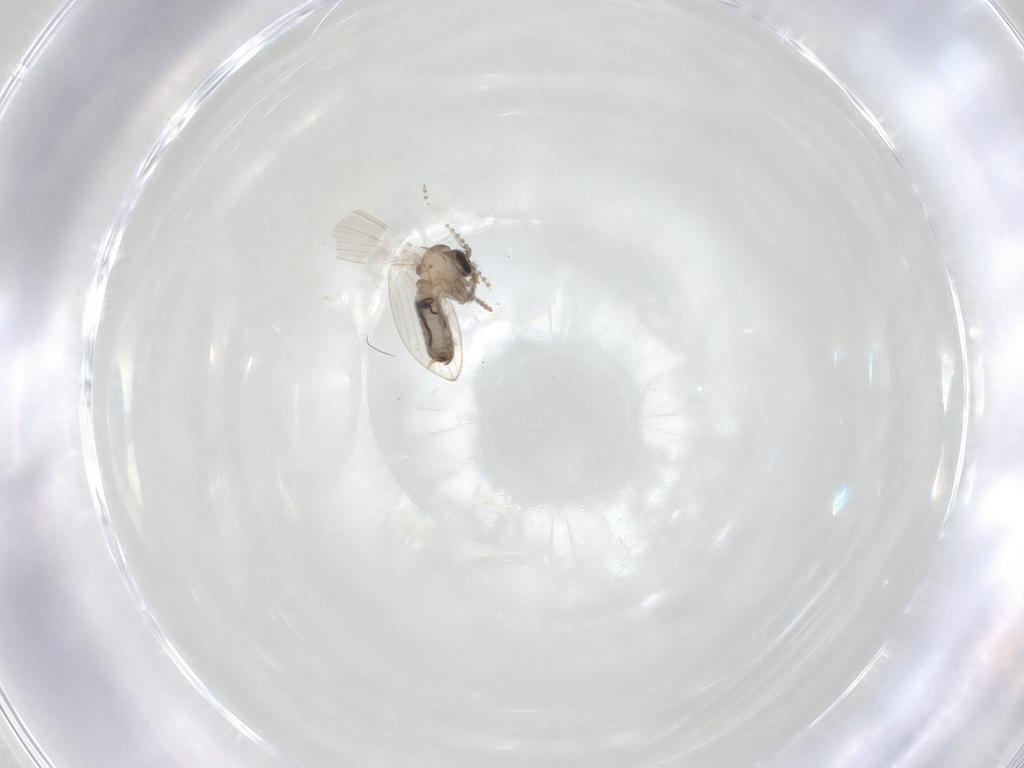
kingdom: Animalia
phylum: Arthropoda
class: Insecta
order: Diptera
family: Psychodidae
